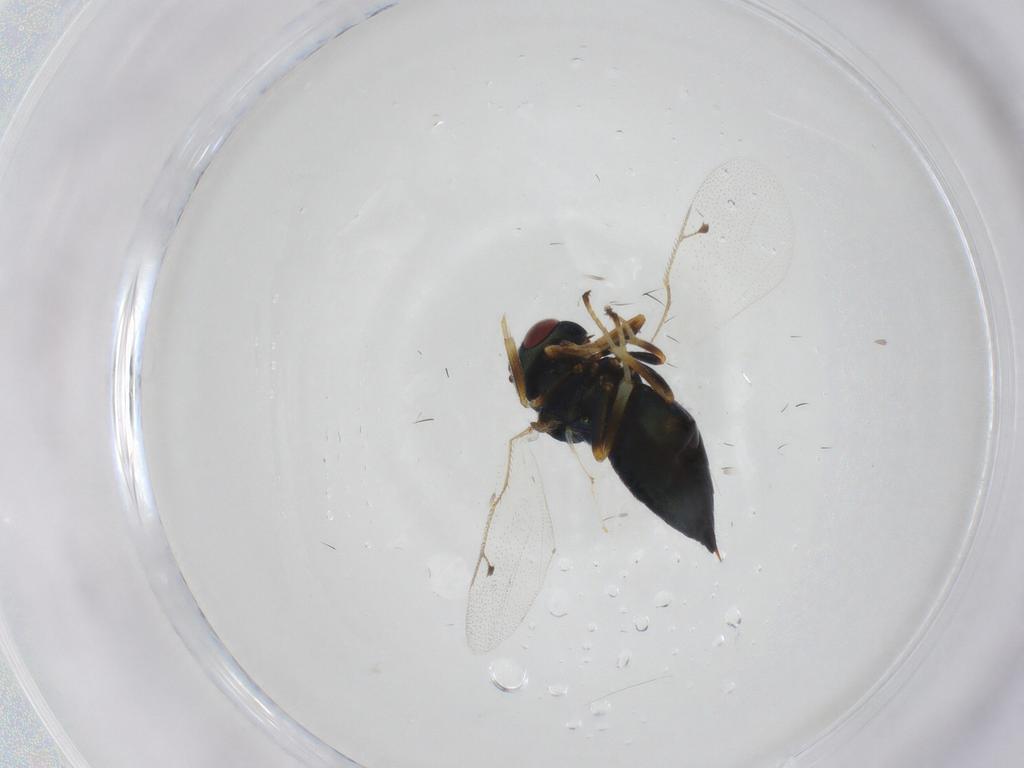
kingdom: Animalia
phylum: Arthropoda
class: Insecta
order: Hymenoptera
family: Pteromalidae
